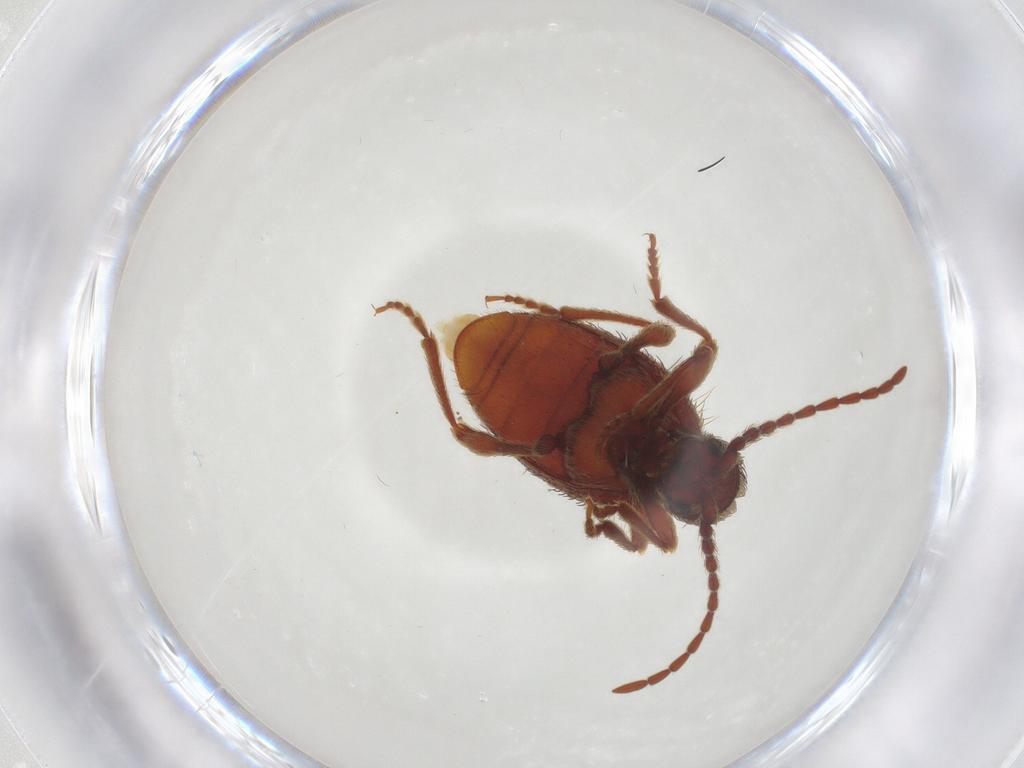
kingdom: Animalia
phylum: Arthropoda
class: Insecta
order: Coleoptera
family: Ptinidae
